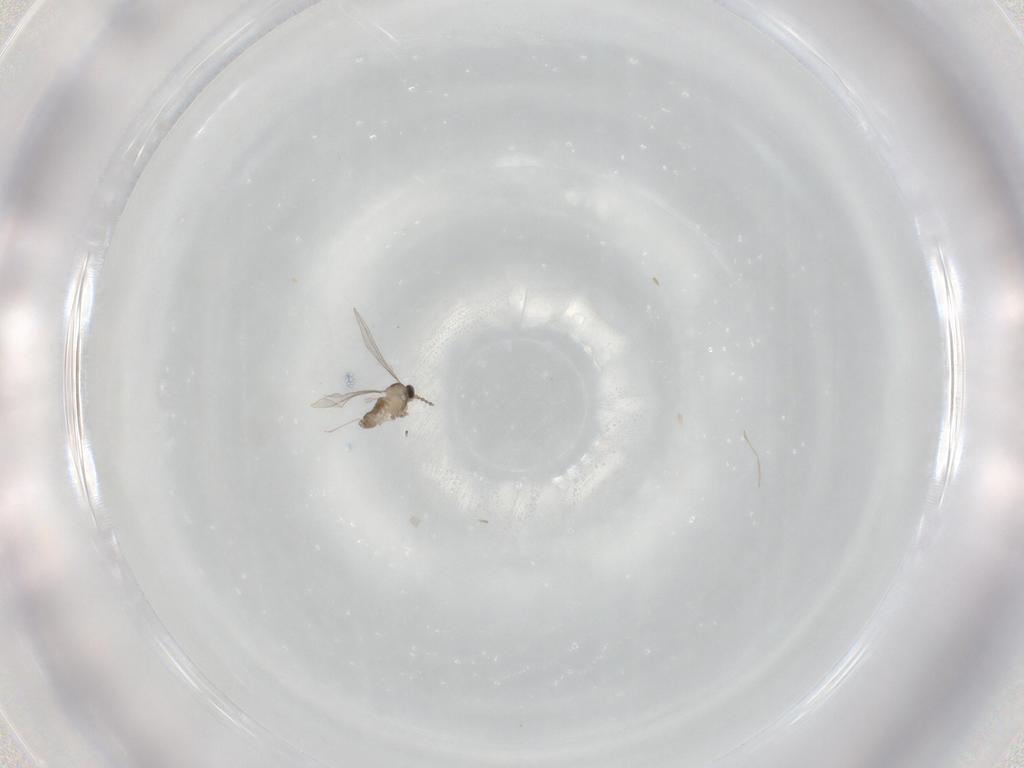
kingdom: Animalia
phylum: Arthropoda
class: Insecta
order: Diptera
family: Cecidomyiidae
